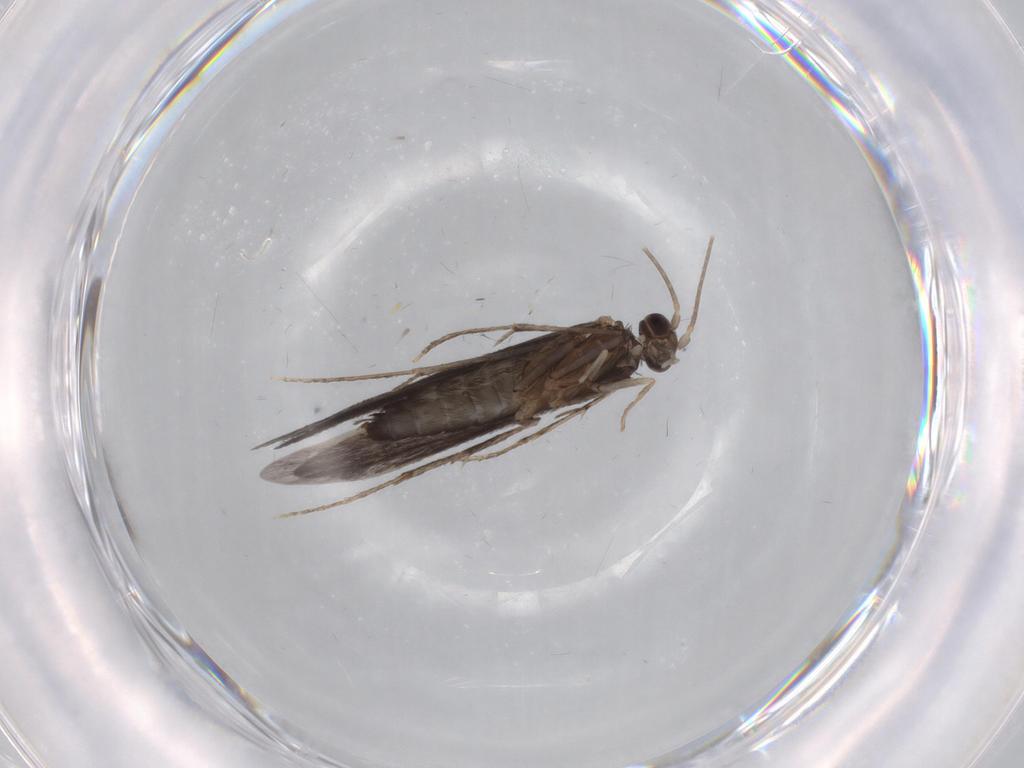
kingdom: Animalia
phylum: Arthropoda
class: Insecta
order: Trichoptera
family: Xiphocentronidae
